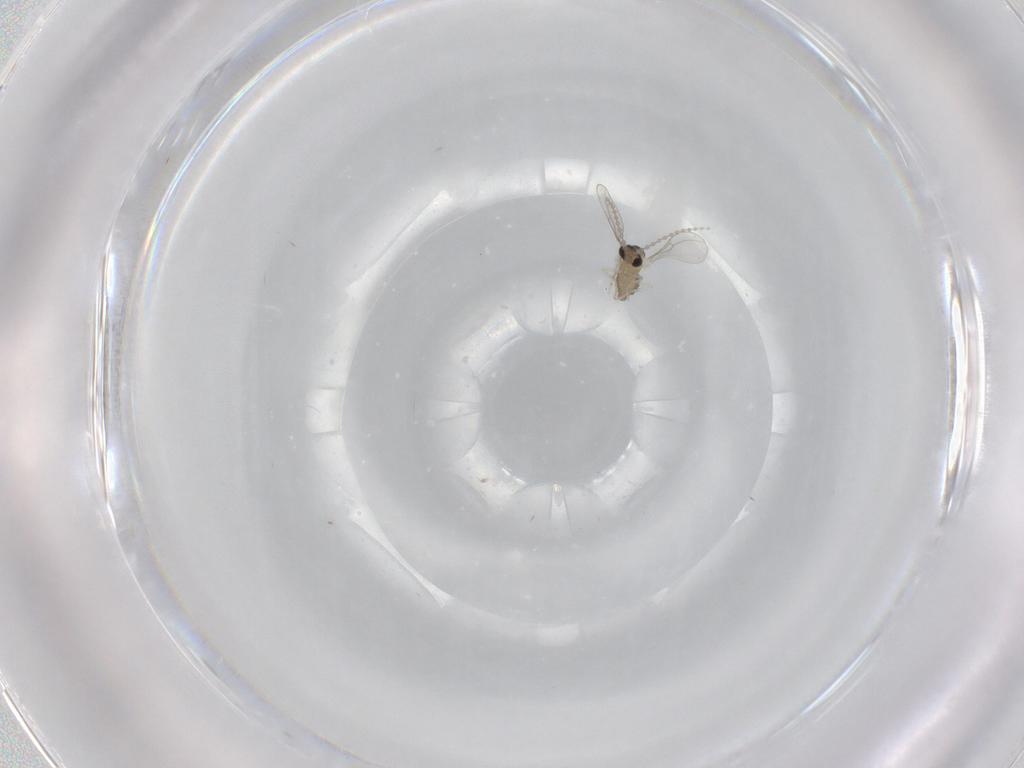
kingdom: Animalia
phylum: Arthropoda
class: Insecta
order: Diptera
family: Cecidomyiidae
